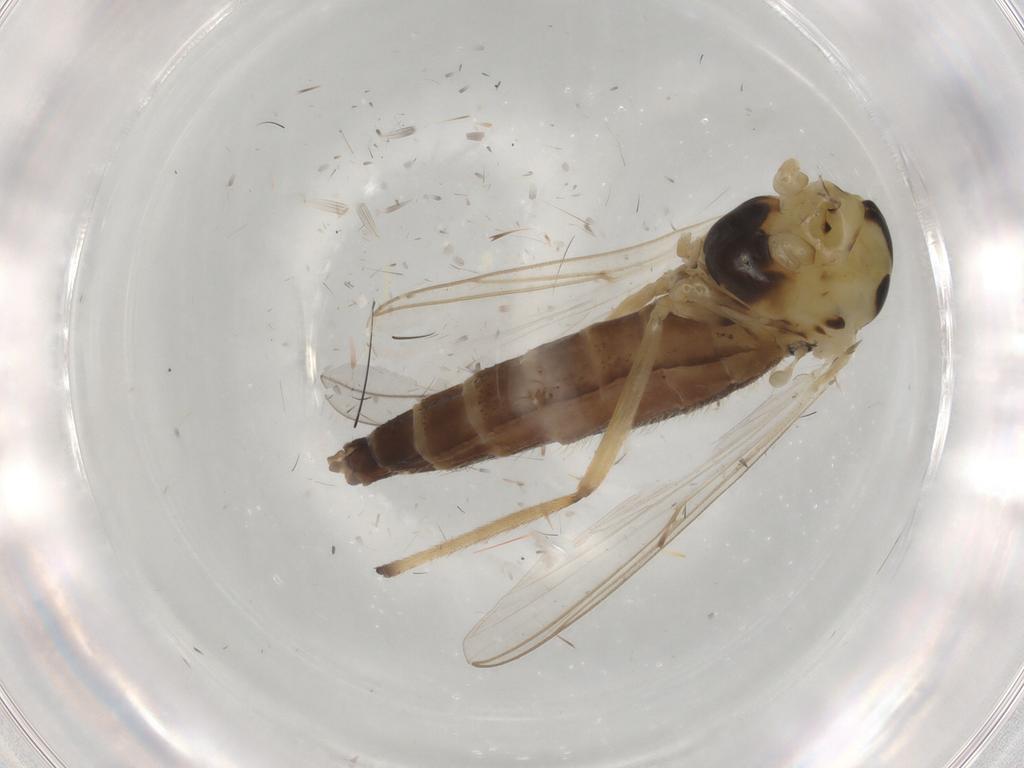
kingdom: Animalia
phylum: Arthropoda
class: Insecta
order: Diptera
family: Chironomidae
